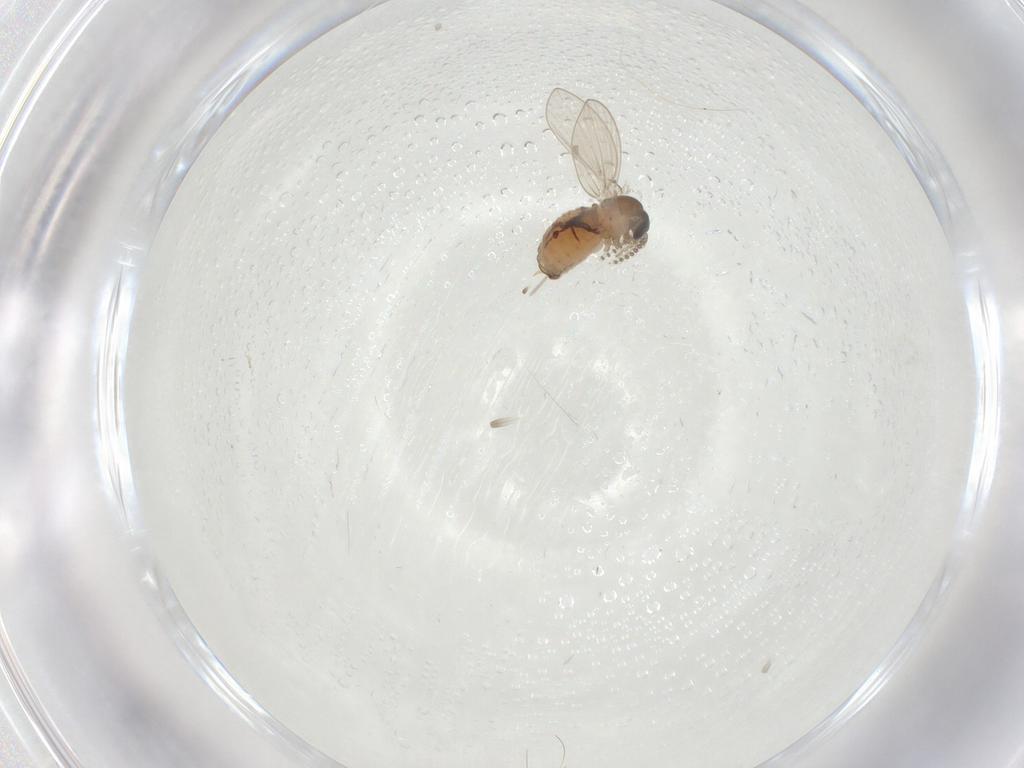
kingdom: Animalia
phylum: Arthropoda
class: Insecta
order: Diptera
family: Psychodidae
